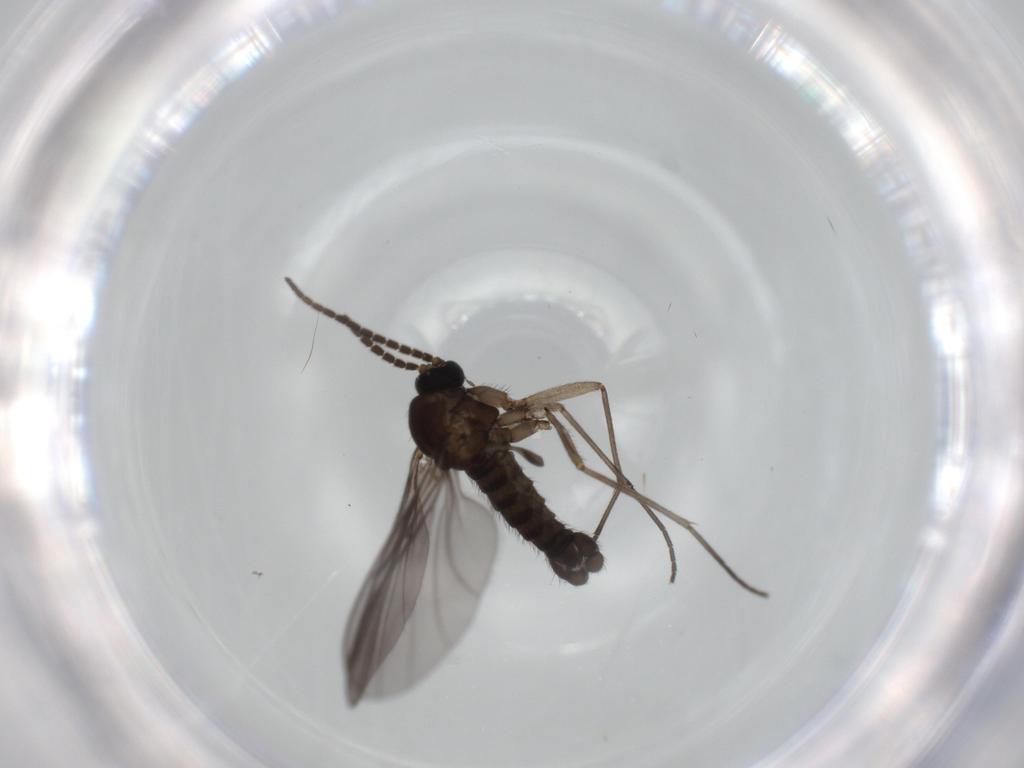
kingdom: Animalia
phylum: Arthropoda
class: Insecta
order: Diptera
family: Sciaridae
